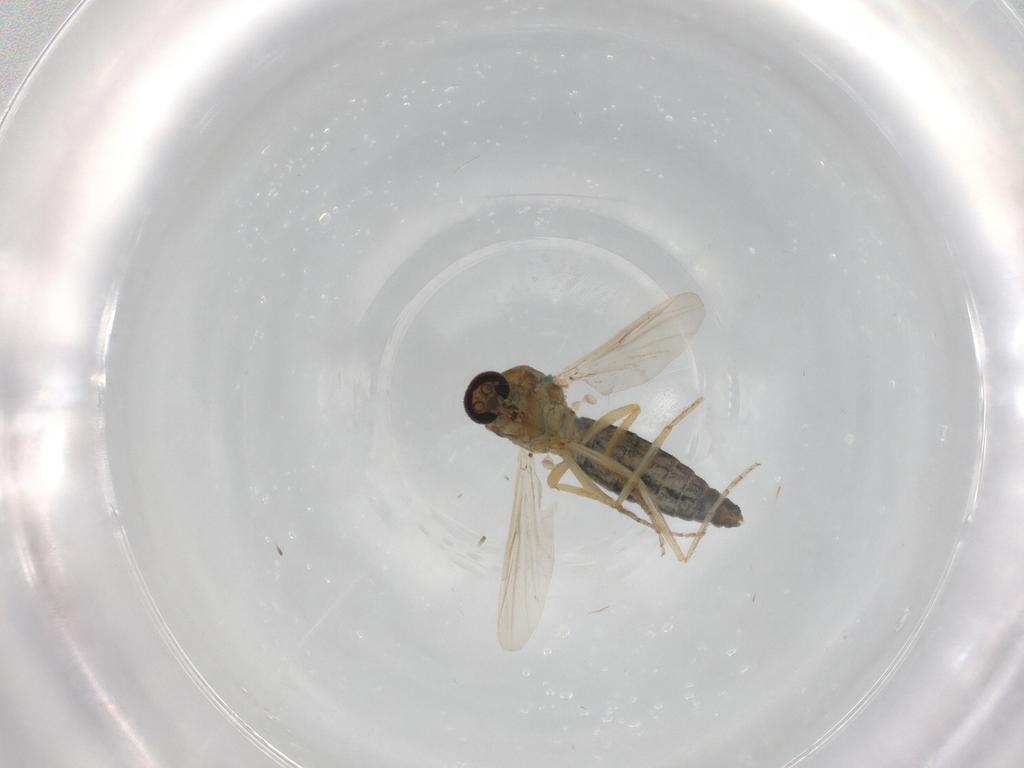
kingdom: Animalia
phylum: Arthropoda
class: Insecta
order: Diptera
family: Ceratopogonidae
